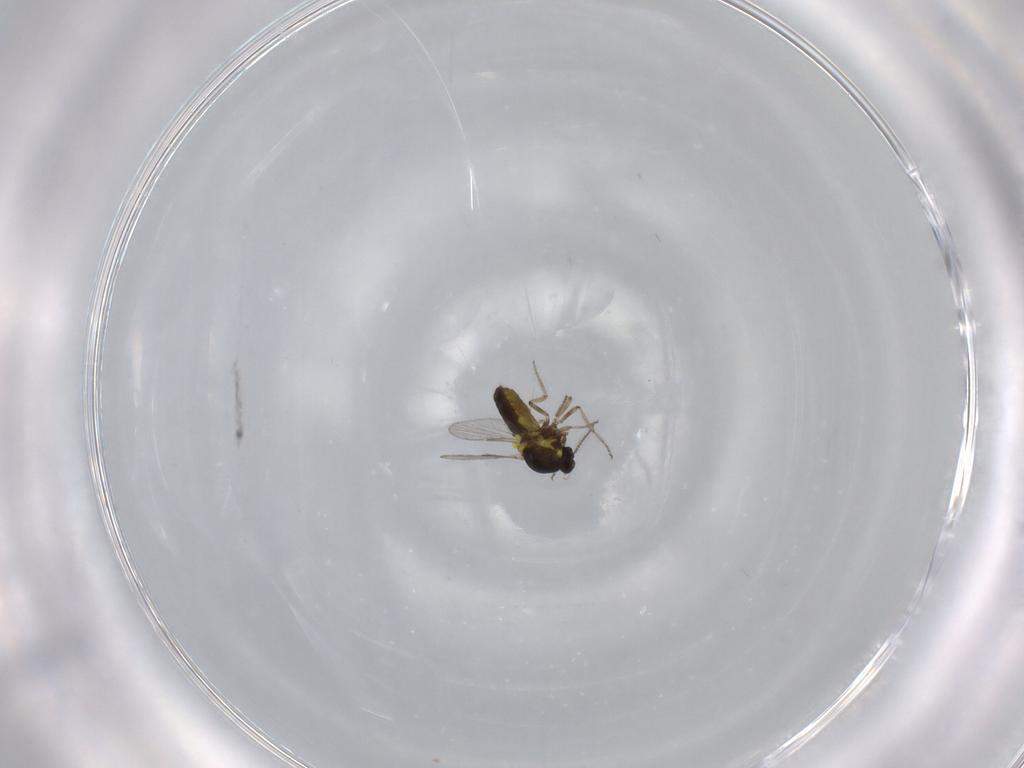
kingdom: Animalia
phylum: Arthropoda
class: Insecta
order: Diptera
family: Ceratopogonidae
